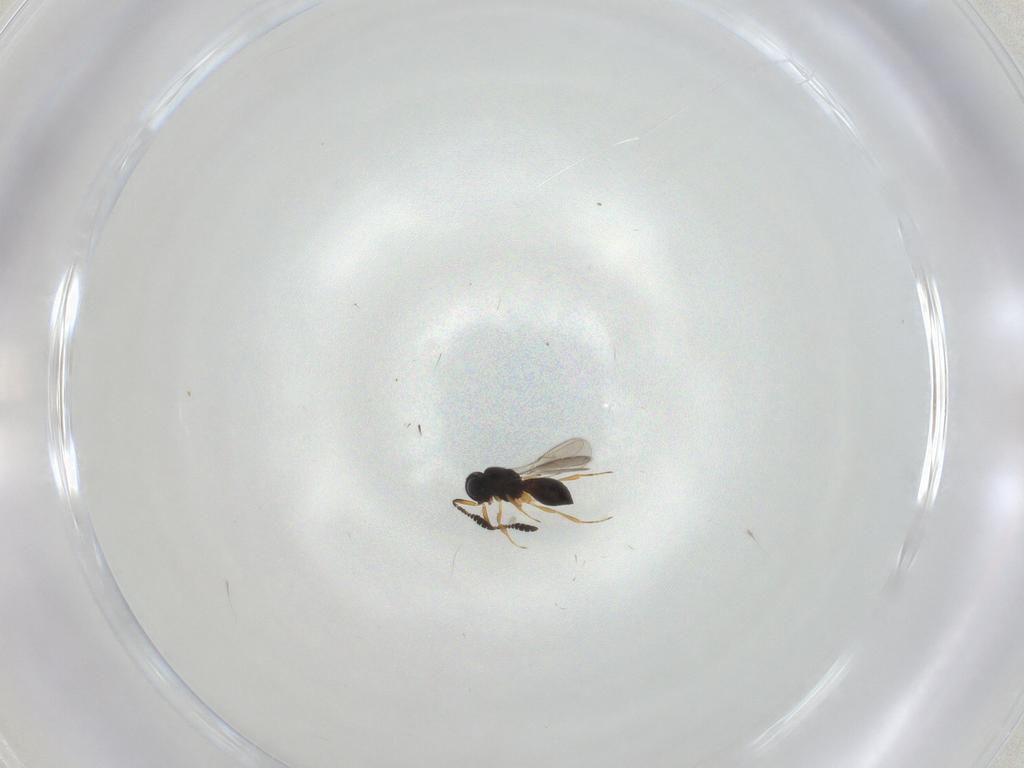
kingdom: Animalia
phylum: Arthropoda
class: Insecta
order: Hymenoptera
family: Scelionidae
